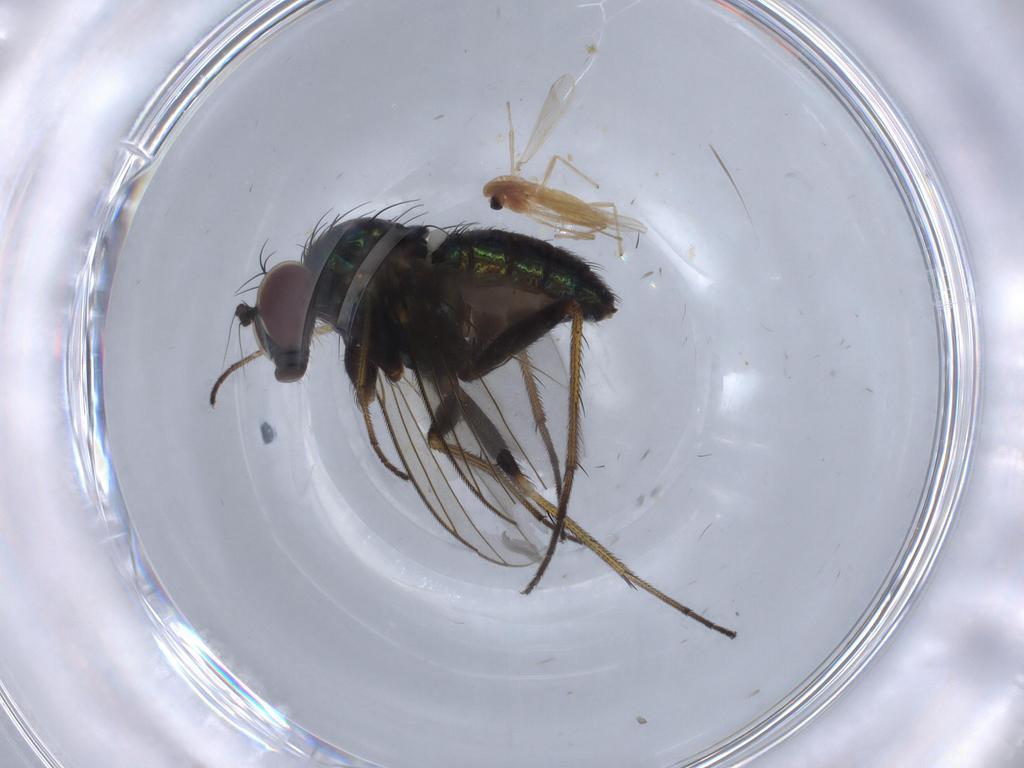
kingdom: Animalia
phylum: Arthropoda
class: Insecta
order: Diptera
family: Dolichopodidae
